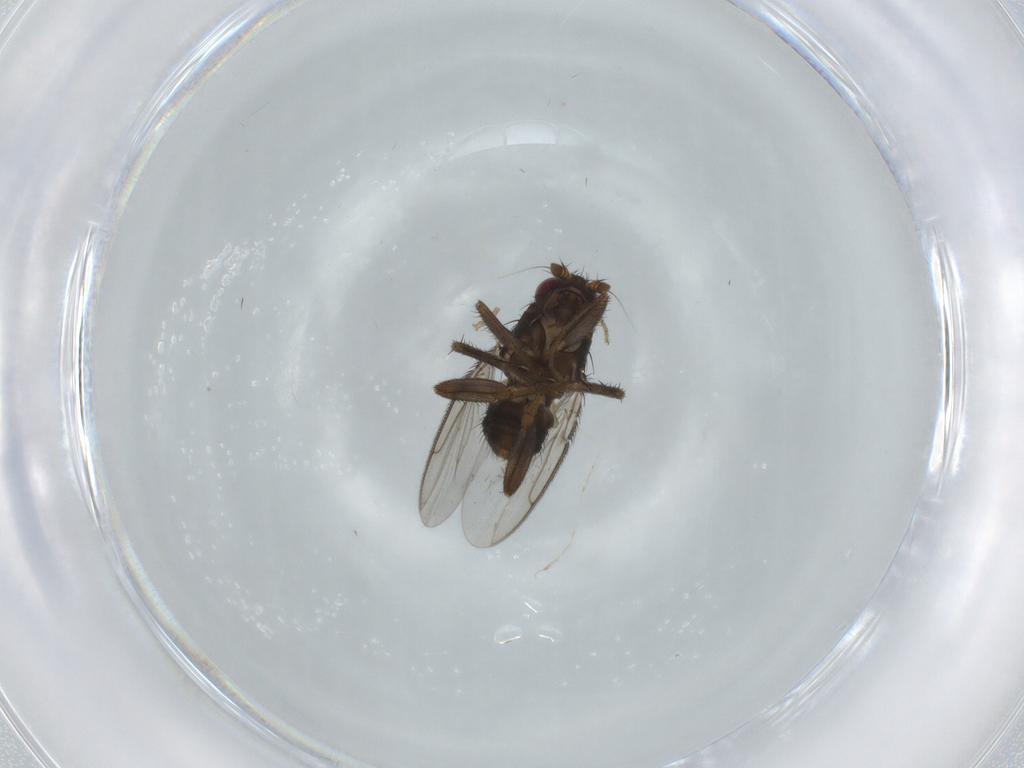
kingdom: Animalia
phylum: Arthropoda
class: Insecta
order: Diptera
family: Sphaeroceridae
